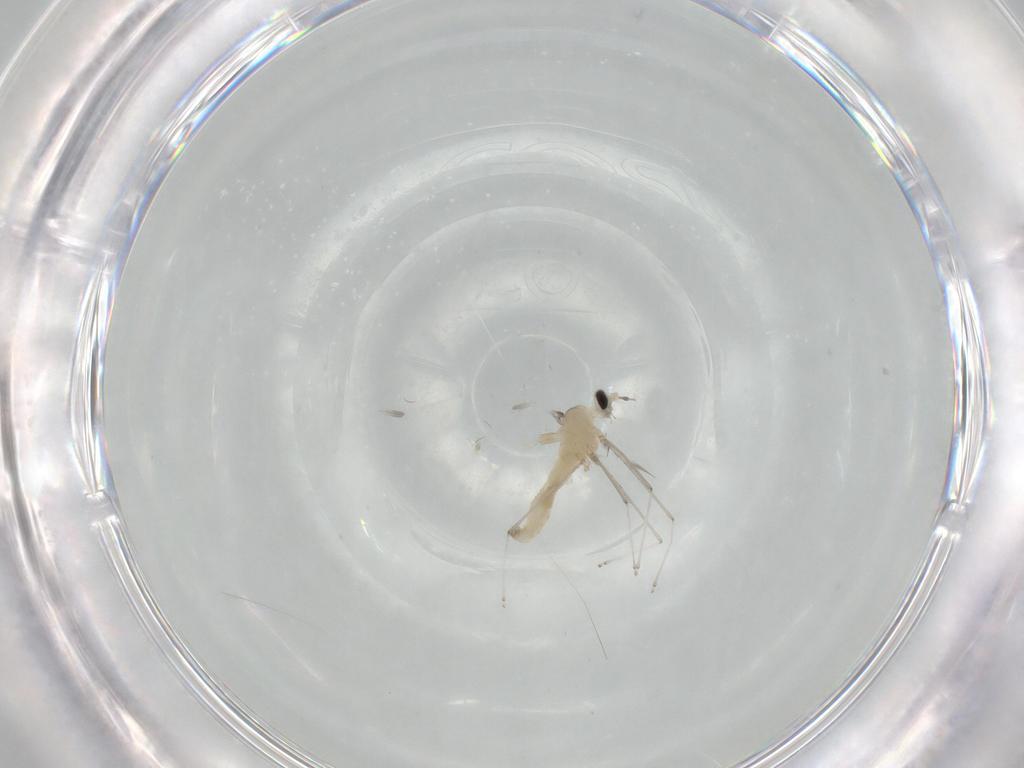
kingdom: Animalia
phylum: Arthropoda
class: Insecta
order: Diptera
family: Cecidomyiidae
